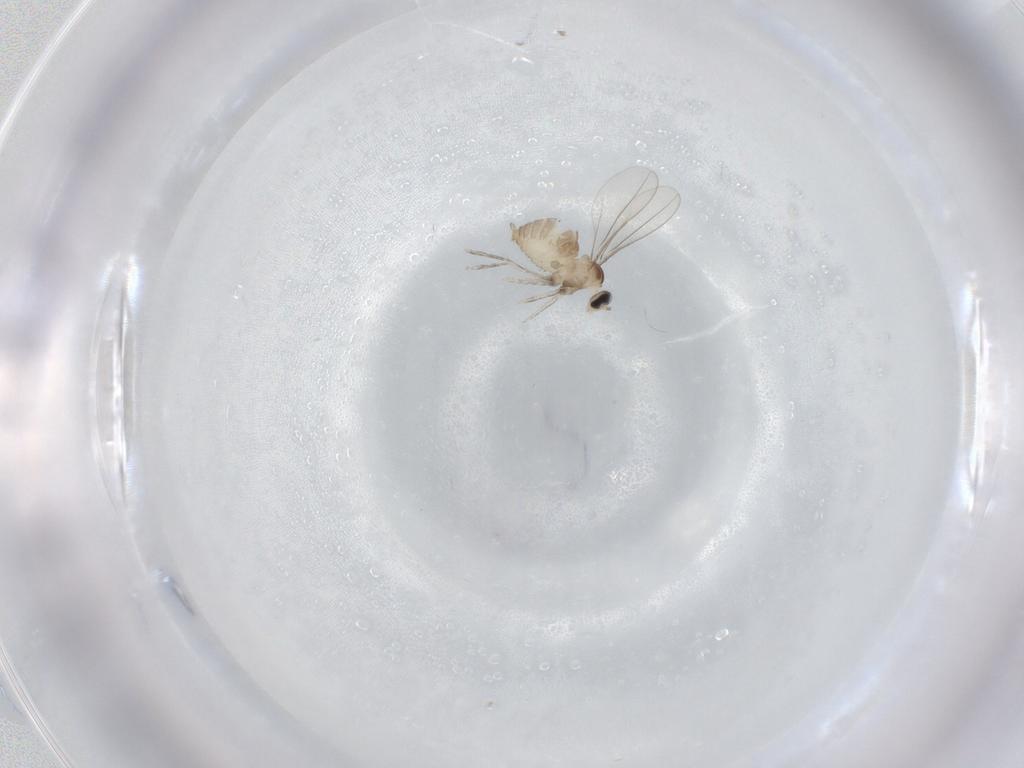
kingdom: Animalia
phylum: Arthropoda
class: Insecta
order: Diptera
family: Cecidomyiidae
